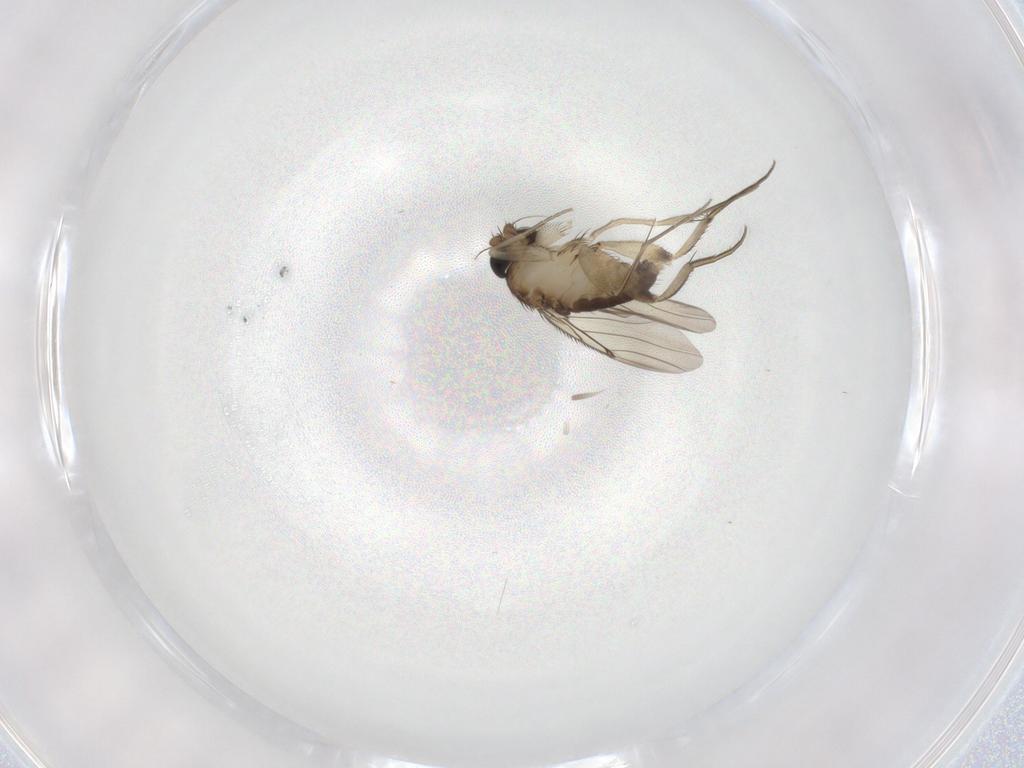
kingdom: Animalia
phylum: Arthropoda
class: Insecta
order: Diptera
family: Phoridae
